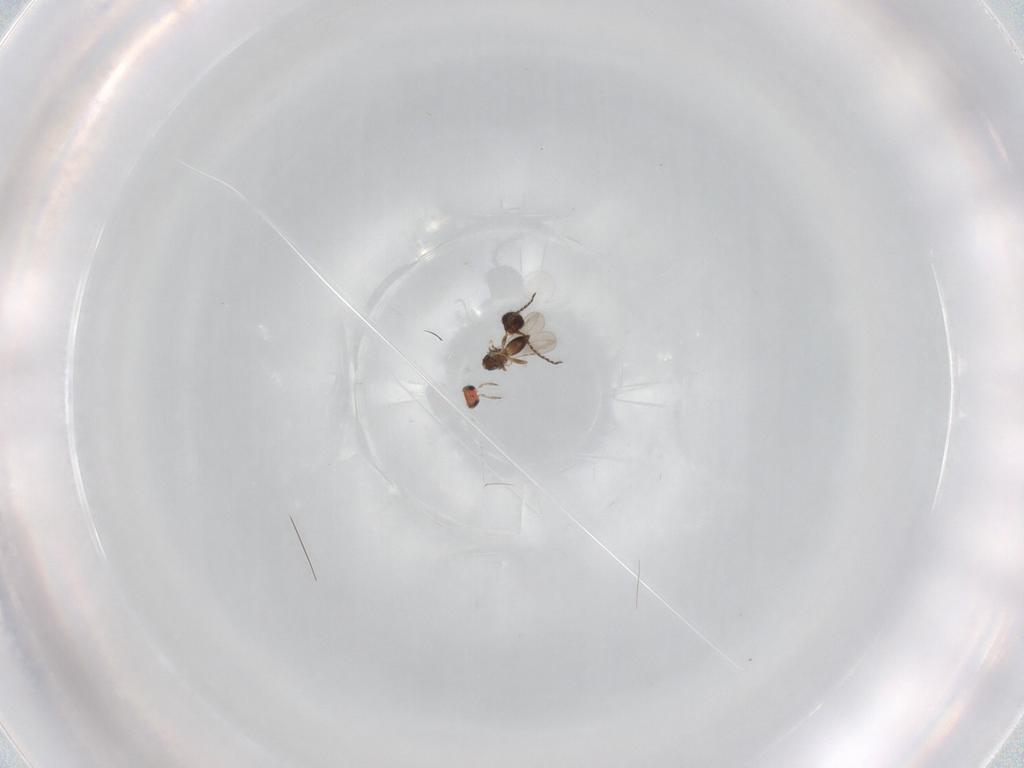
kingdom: Animalia
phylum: Arthropoda
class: Insecta
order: Hymenoptera
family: Trichogrammatidae
